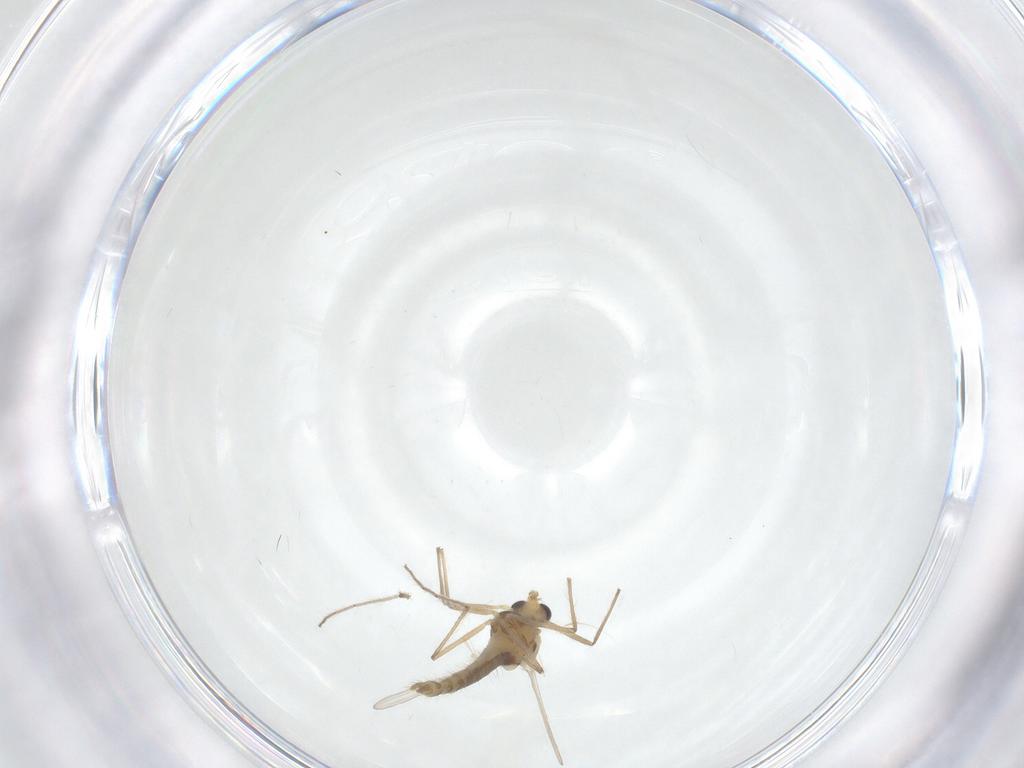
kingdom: Animalia
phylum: Arthropoda
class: Insecta
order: Diptera
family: Chironomidae
